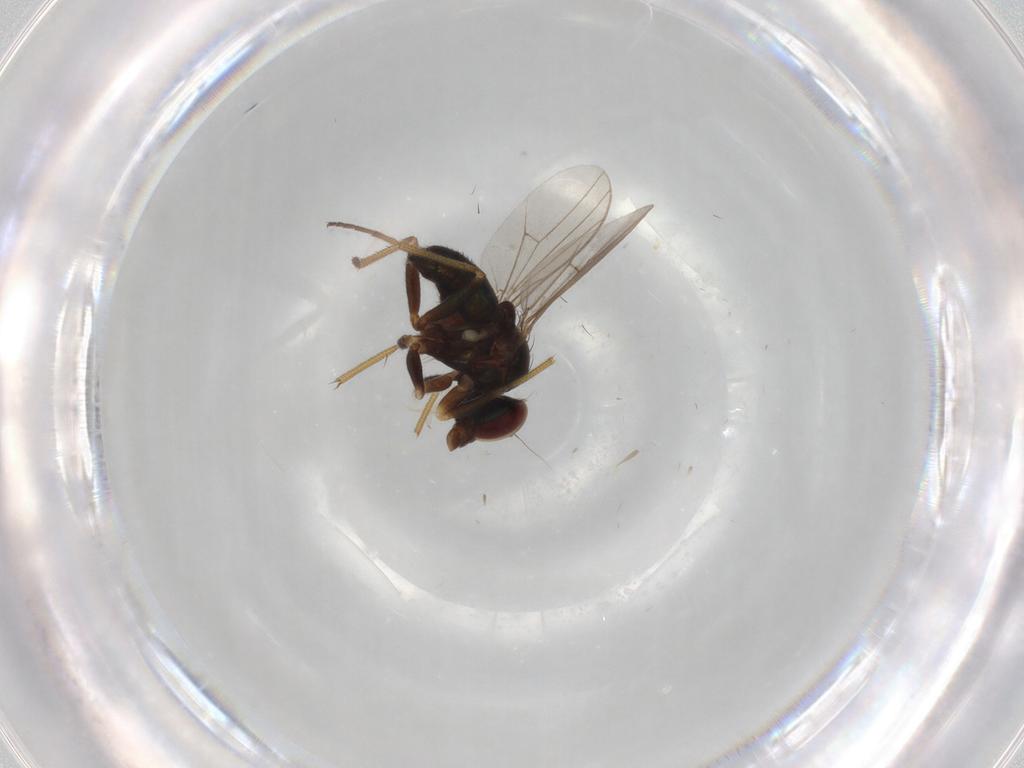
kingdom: Animalia
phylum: Arthropoda
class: Insecta
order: Diptera
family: Dolichopodidae
